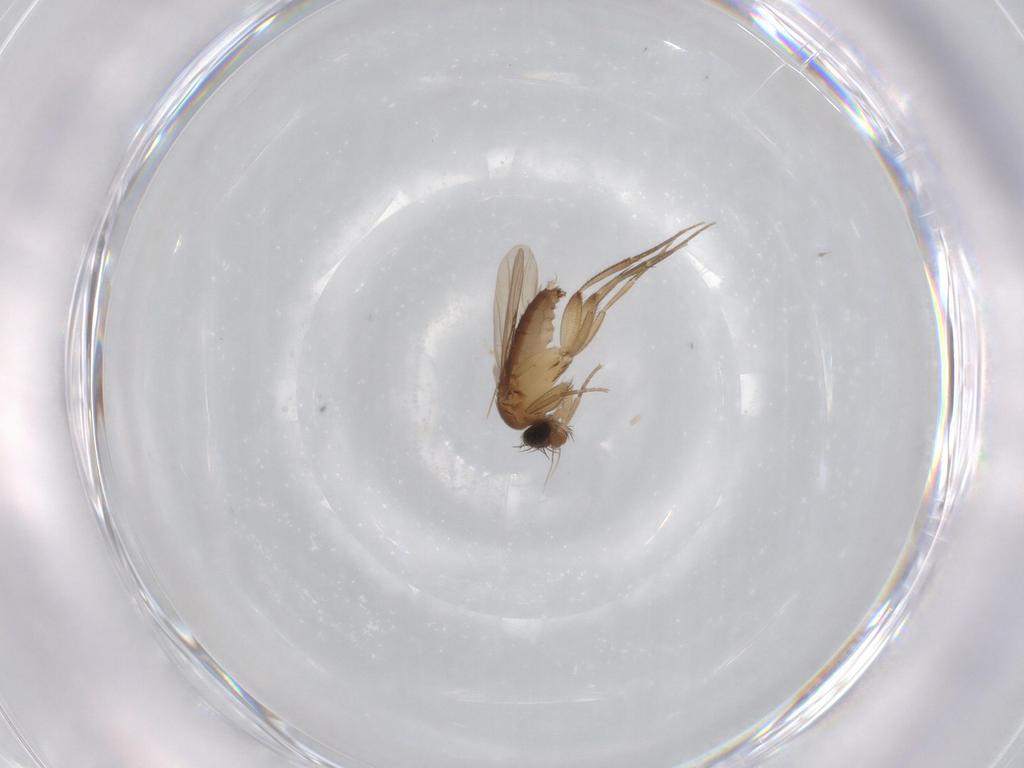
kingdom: Animalia
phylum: Arthropoda
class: Insecta
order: Diptera
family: Phoridae
